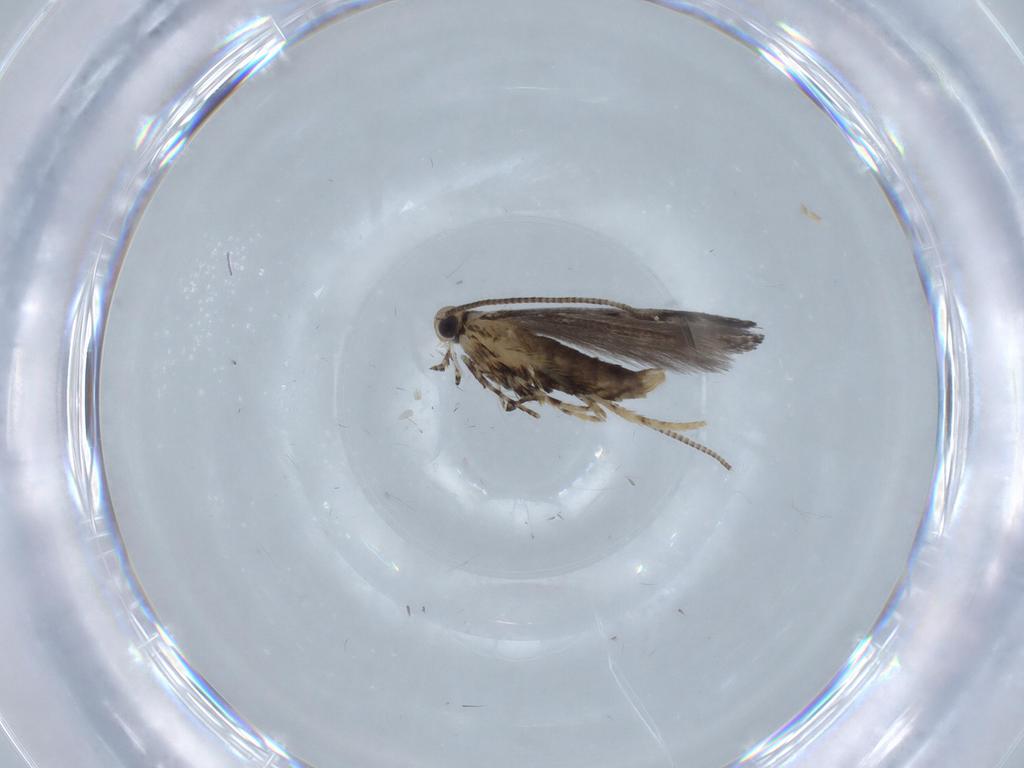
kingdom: Animalia
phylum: Arthropoda
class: Insecta
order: Lepidoptera
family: Gracillariidae
